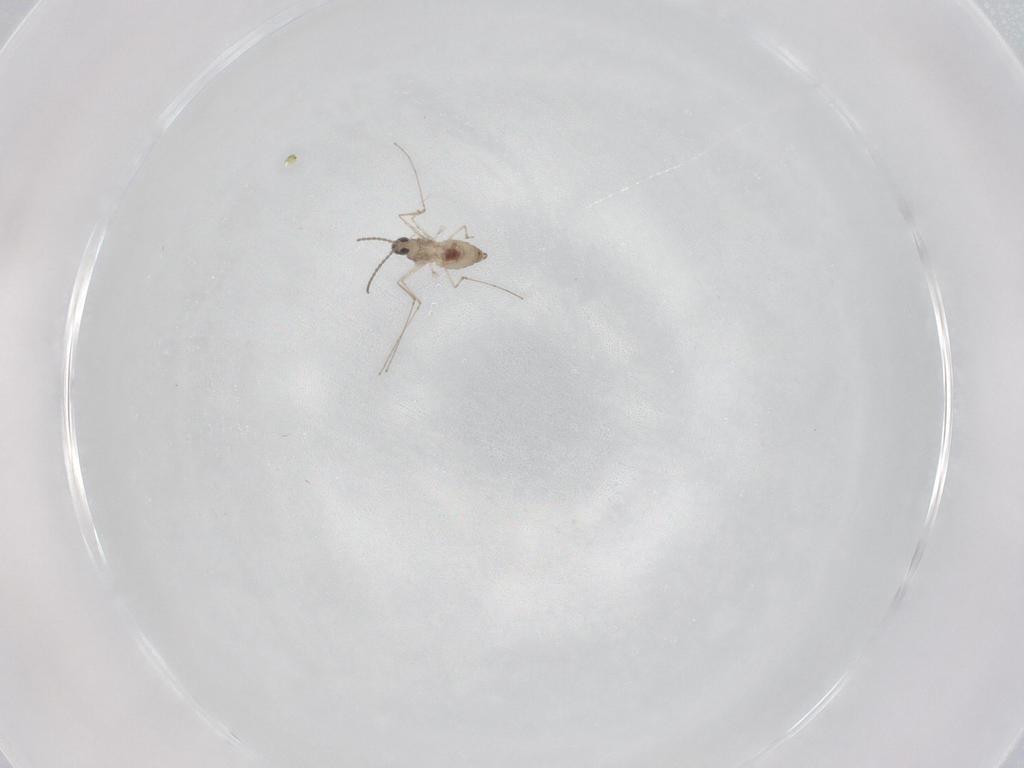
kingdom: Animalia
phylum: Arthropoda
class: Insecta
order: Diptera
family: Cecidomyiidae
